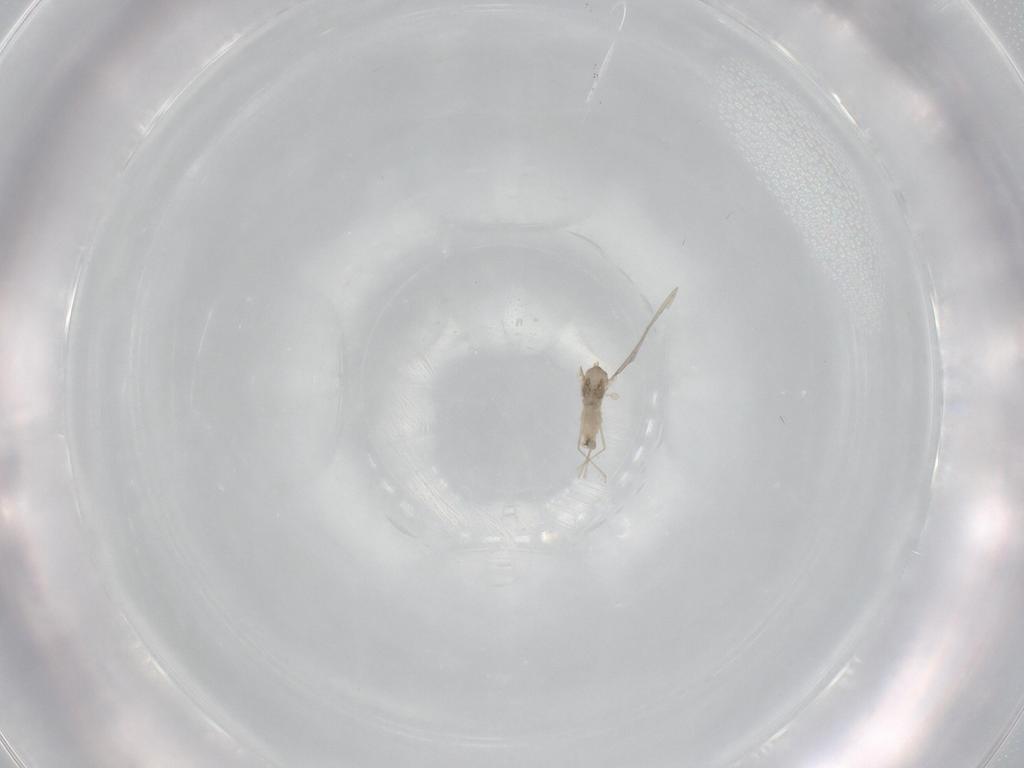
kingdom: Animalia
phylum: Arthropoda
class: Insecta
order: Diptera
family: Cecidomyiidae
